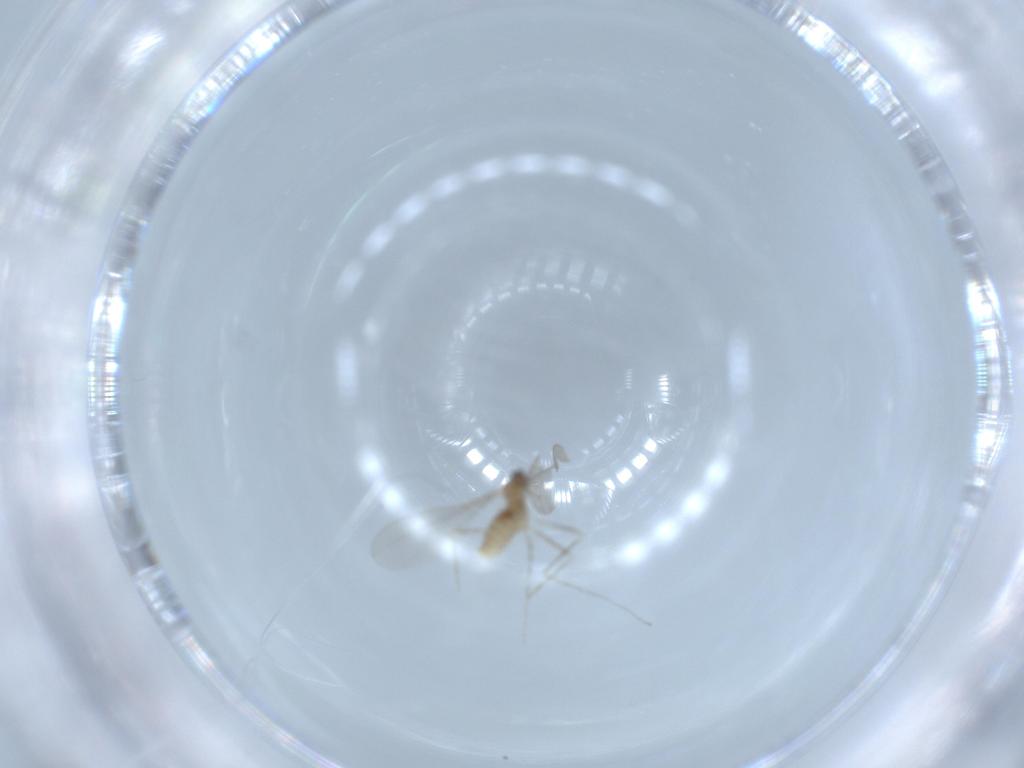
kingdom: Animalia
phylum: Arthropoda
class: Insecta
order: Diptera
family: Cecidomyiidae
